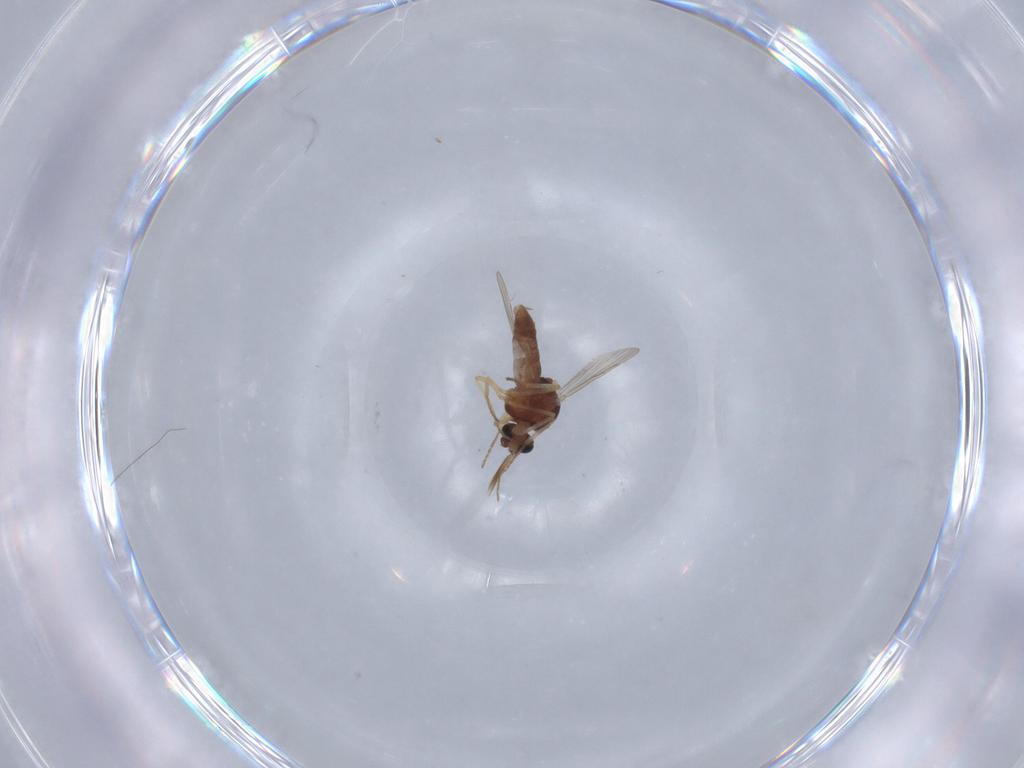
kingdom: Animalia
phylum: Arthropoda
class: Insecta
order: Diptera
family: Ceratopogonidae
